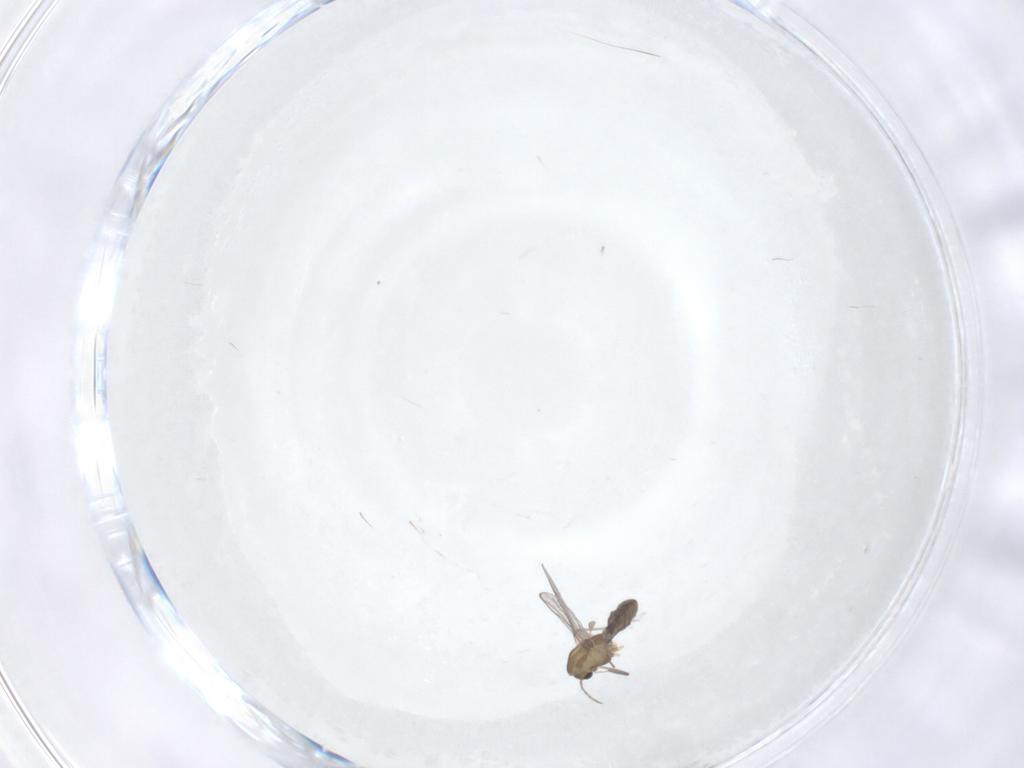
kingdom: Animalia
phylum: Arthropoda
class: Insecta
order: Diptera
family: Chironomidae
